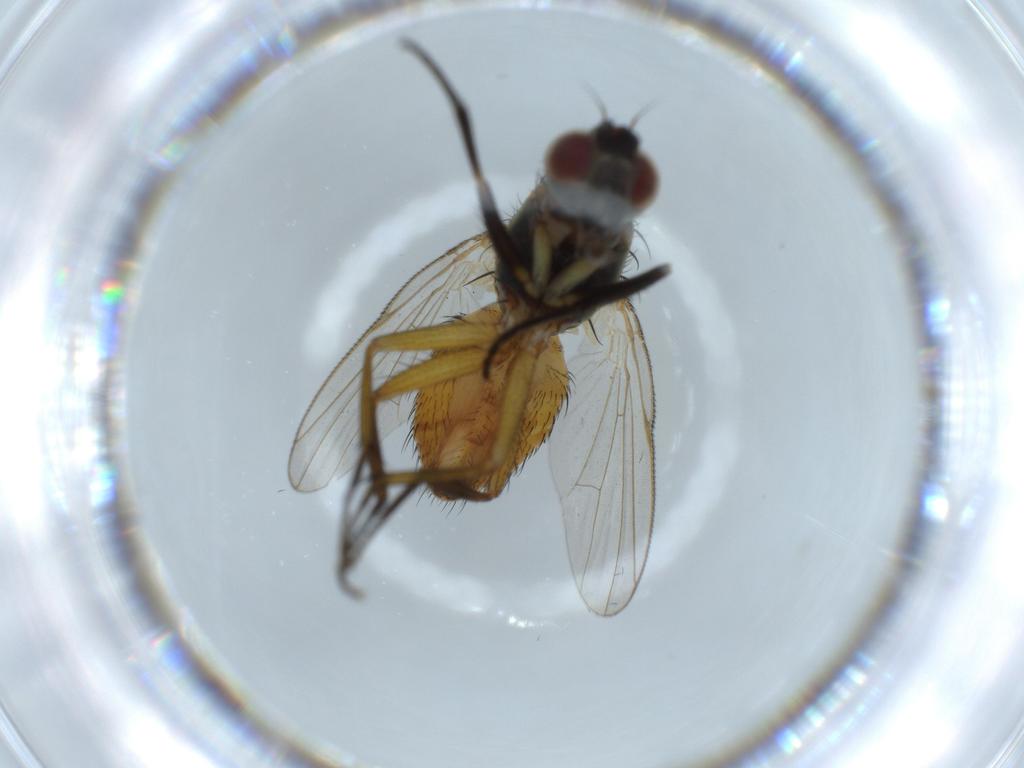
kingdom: Animalia
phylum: Arthropoda
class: Insecta
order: Diptera
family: Muscidae
